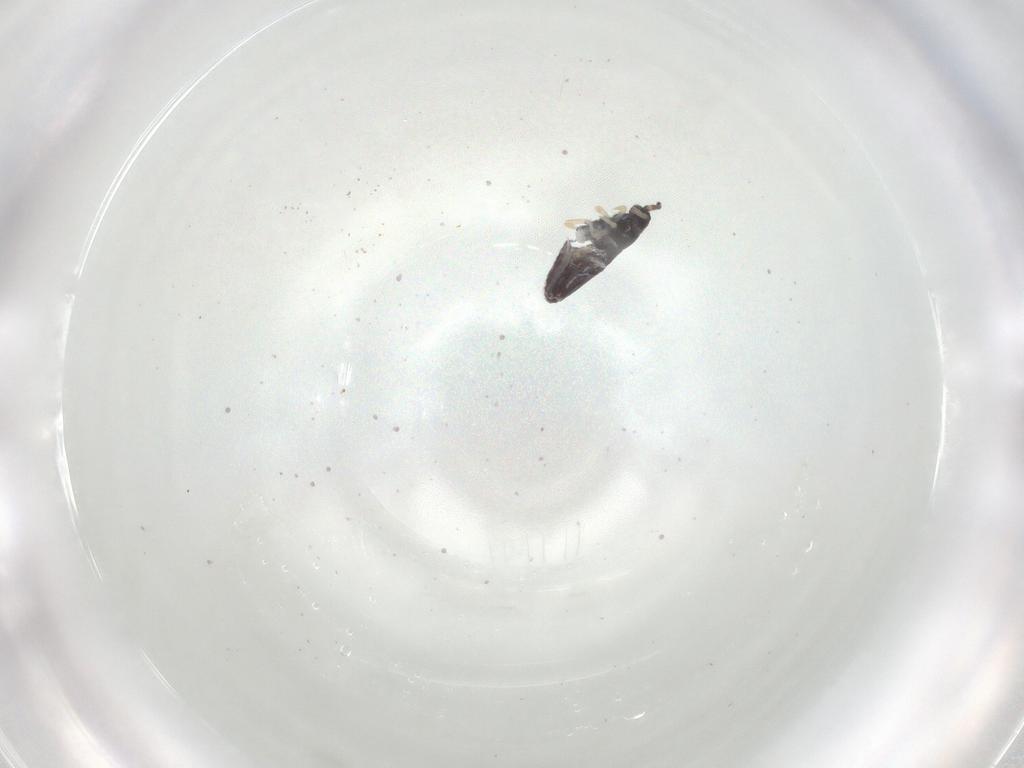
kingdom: Animalia
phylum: Arthropoda
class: Collembola
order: Entomobryomorpha
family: Entomobryidae
